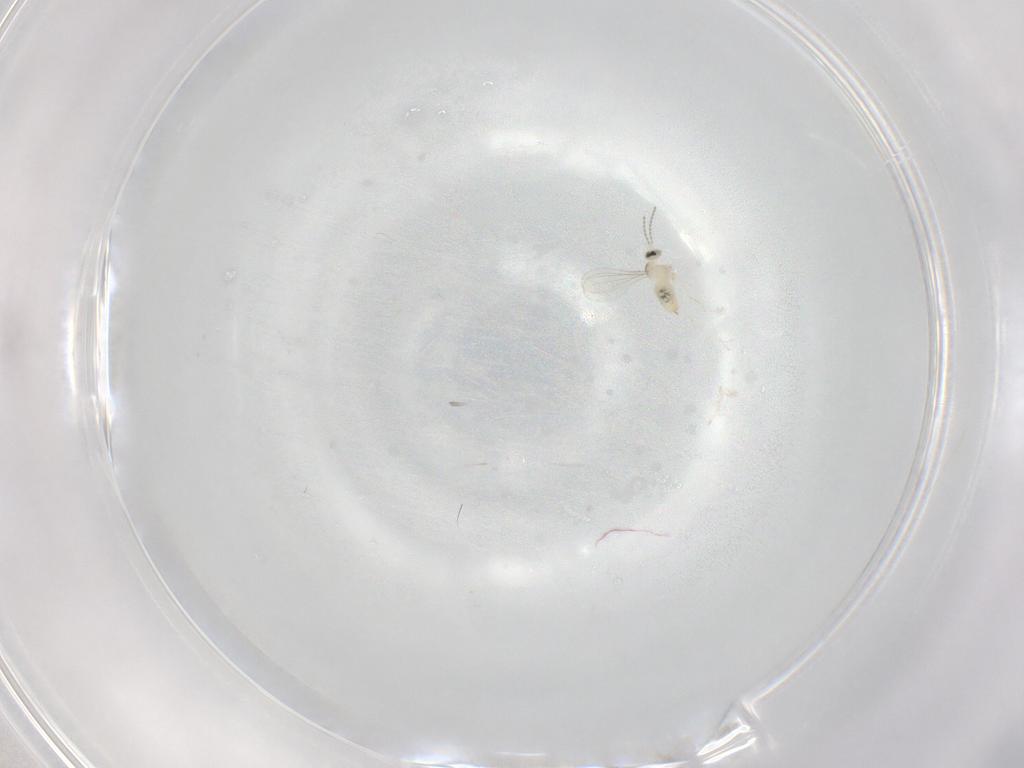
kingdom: Animalia
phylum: Arthropoda
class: Insecta
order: Diptera
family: Cecidomyiidae
